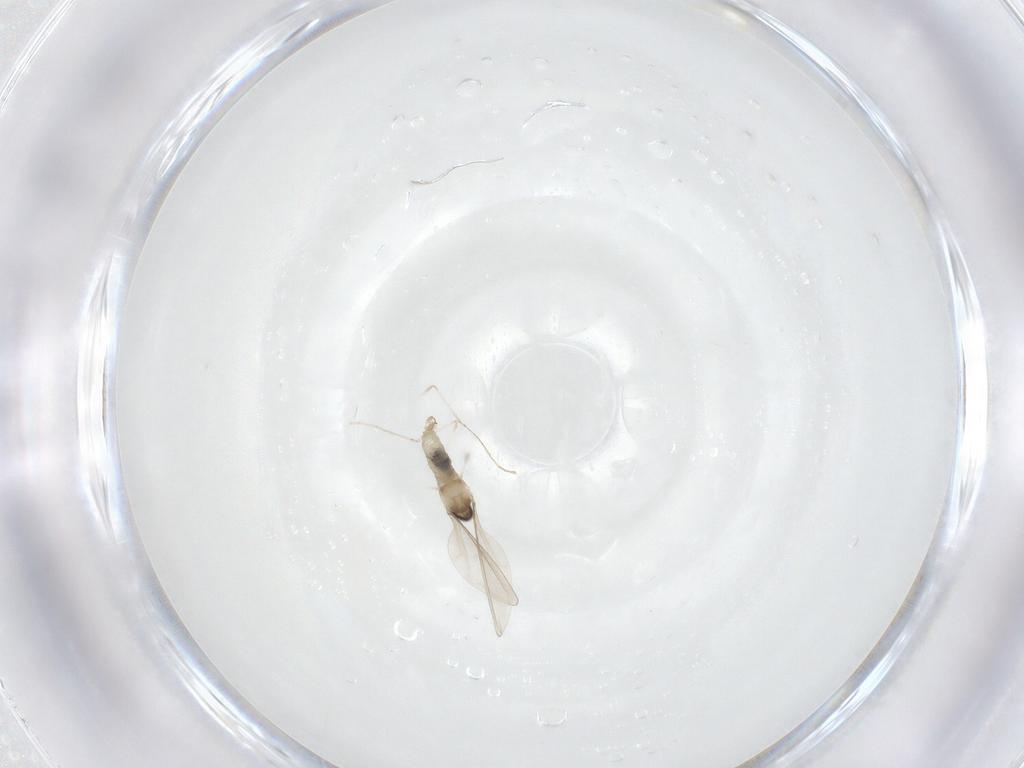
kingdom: Animalia
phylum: Arthropoda
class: Insecta
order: Diptera
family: Cecidomyiidae
